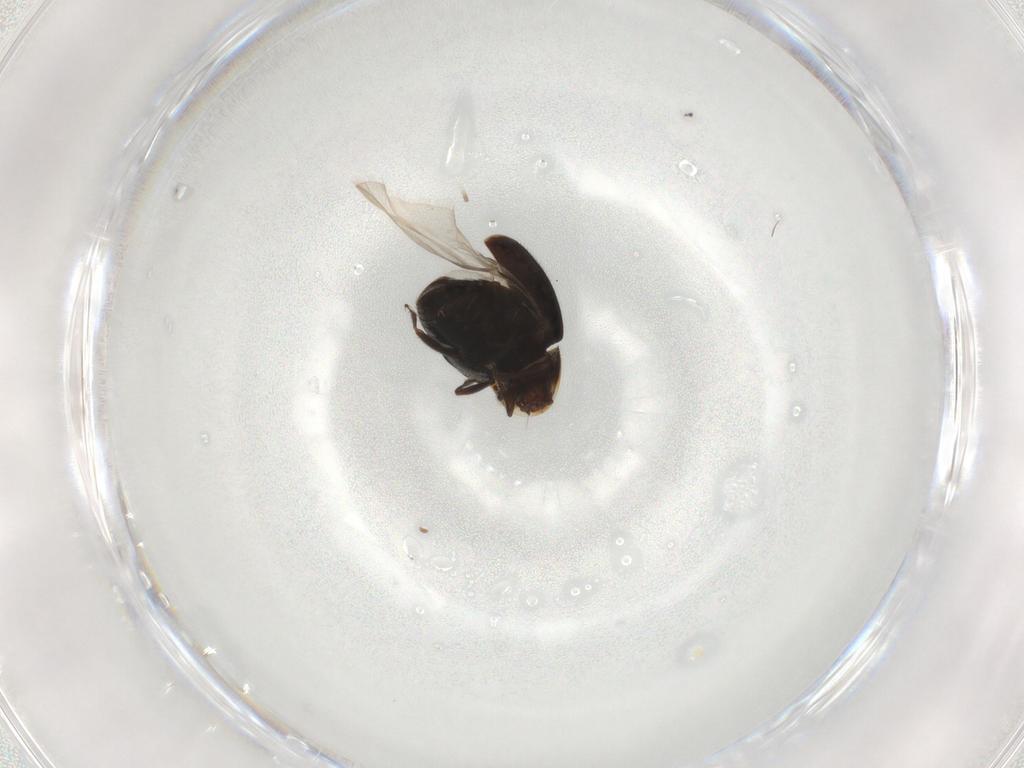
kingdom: Animalia
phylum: Arthropoda
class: Insecta
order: Coleoptera
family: Corylophidae
